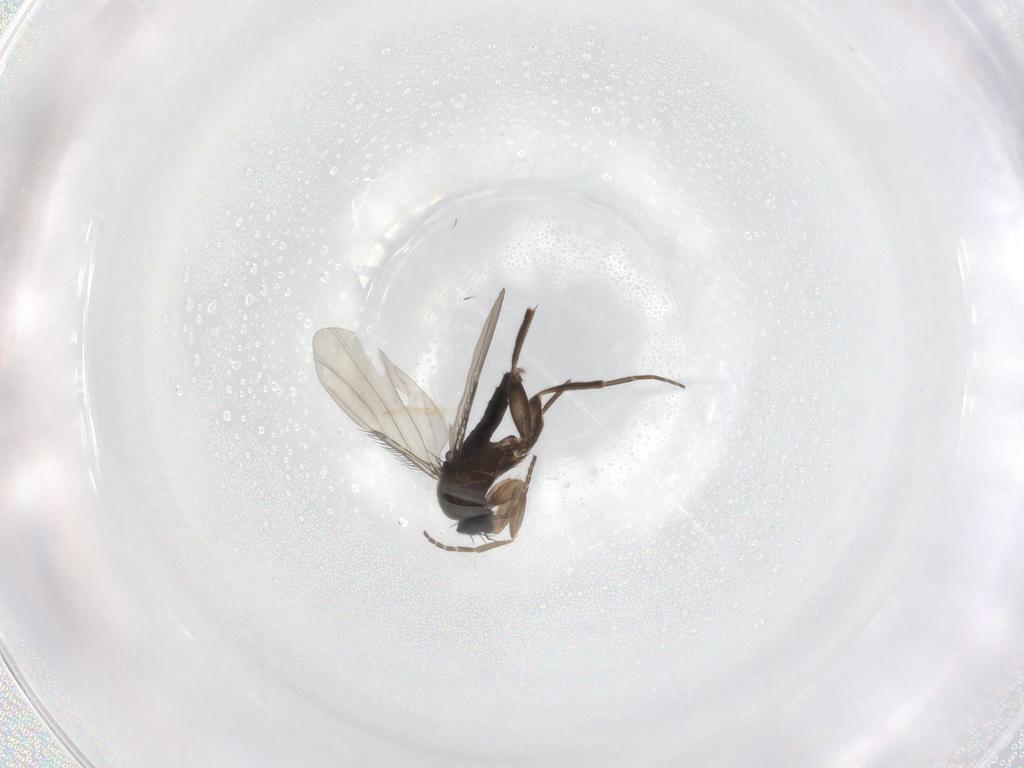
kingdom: Animalia
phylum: Arthropoda
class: Insecta
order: Diptera
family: Phoridae
